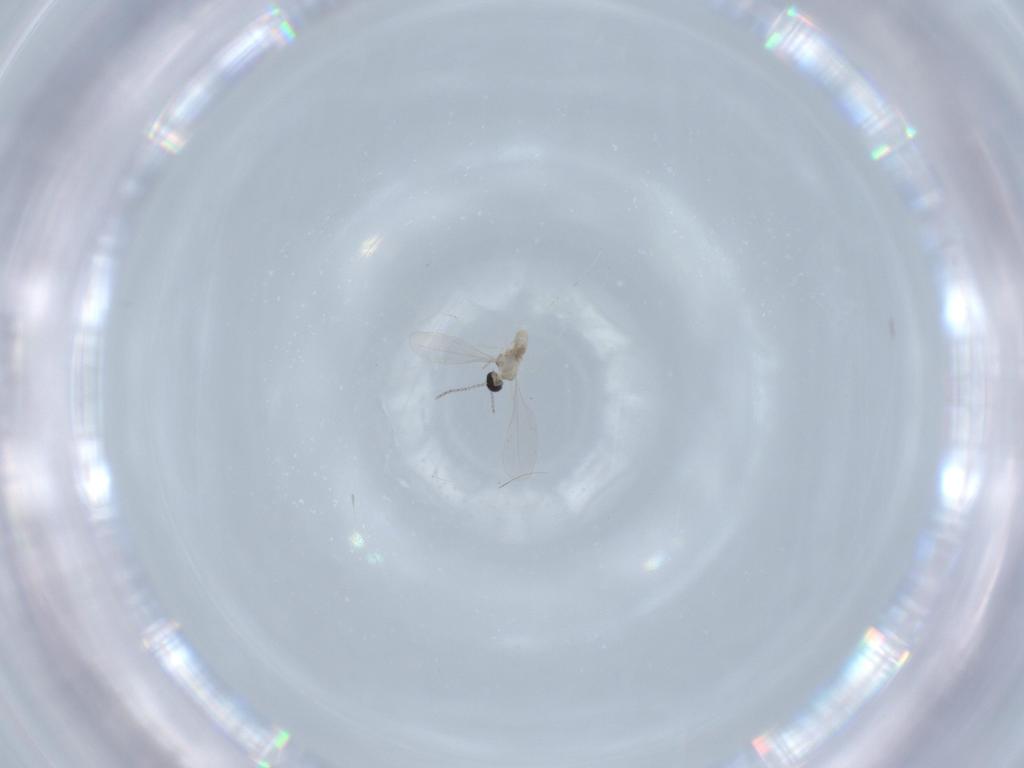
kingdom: Animalia
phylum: Arthropoda
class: Insecta
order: Diptera
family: Cecidomyiidae
